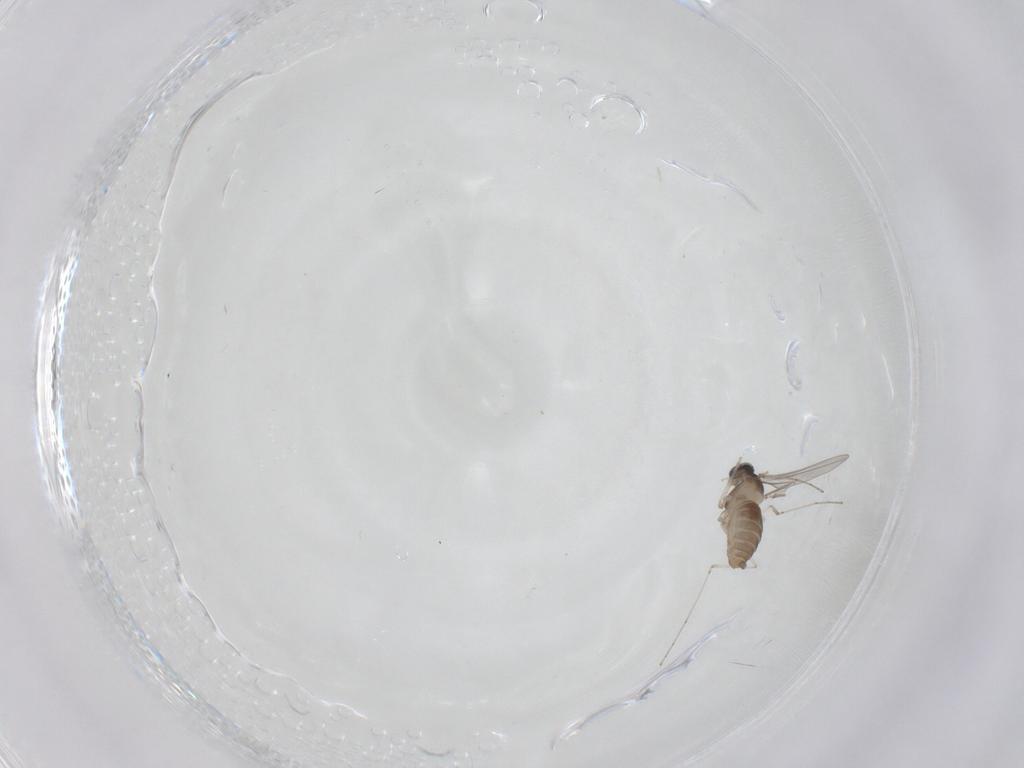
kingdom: Animalia
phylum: Arthropoda
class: Insecta
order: Diptera
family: Cecidomyiidae
